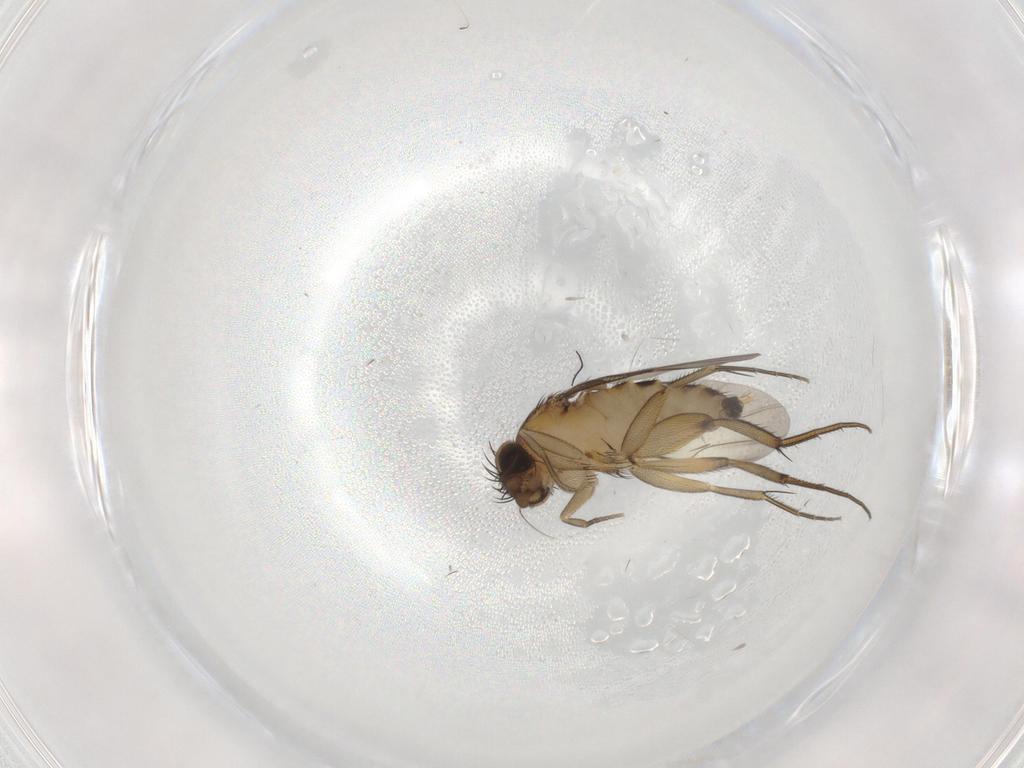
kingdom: Animalia
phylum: Arthropoda
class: Insecta
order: Diptera
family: Phoridae
